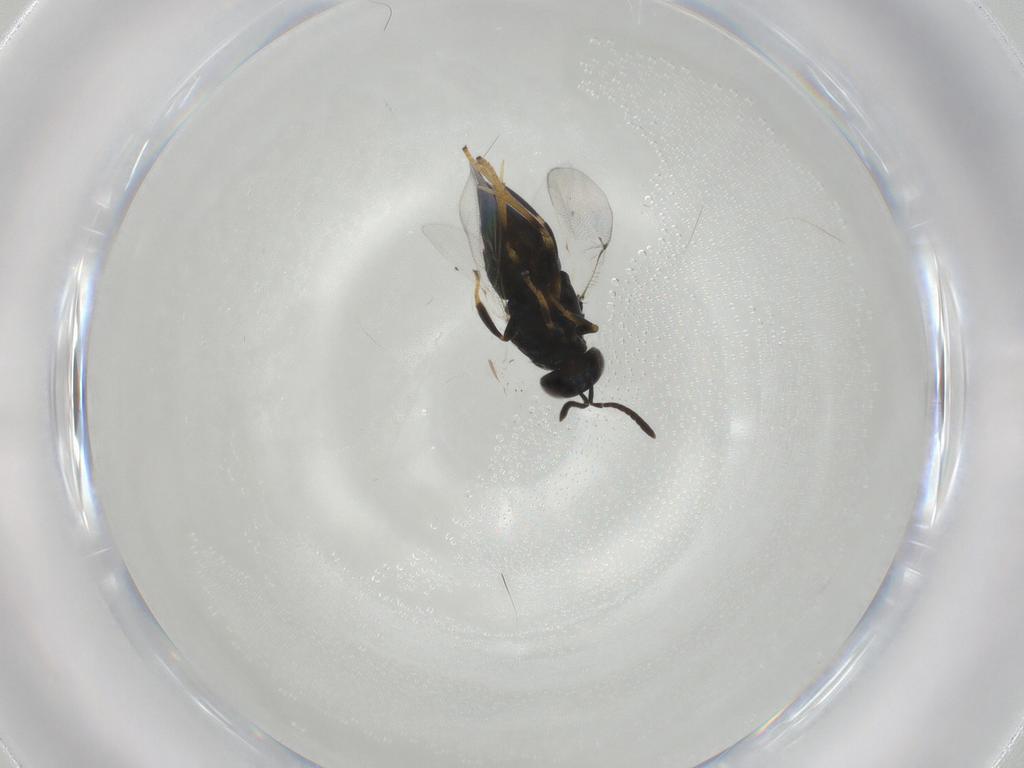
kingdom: Animalia
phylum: Arthropoda
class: Insecta
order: Hymenoptera
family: Encyrtidae
